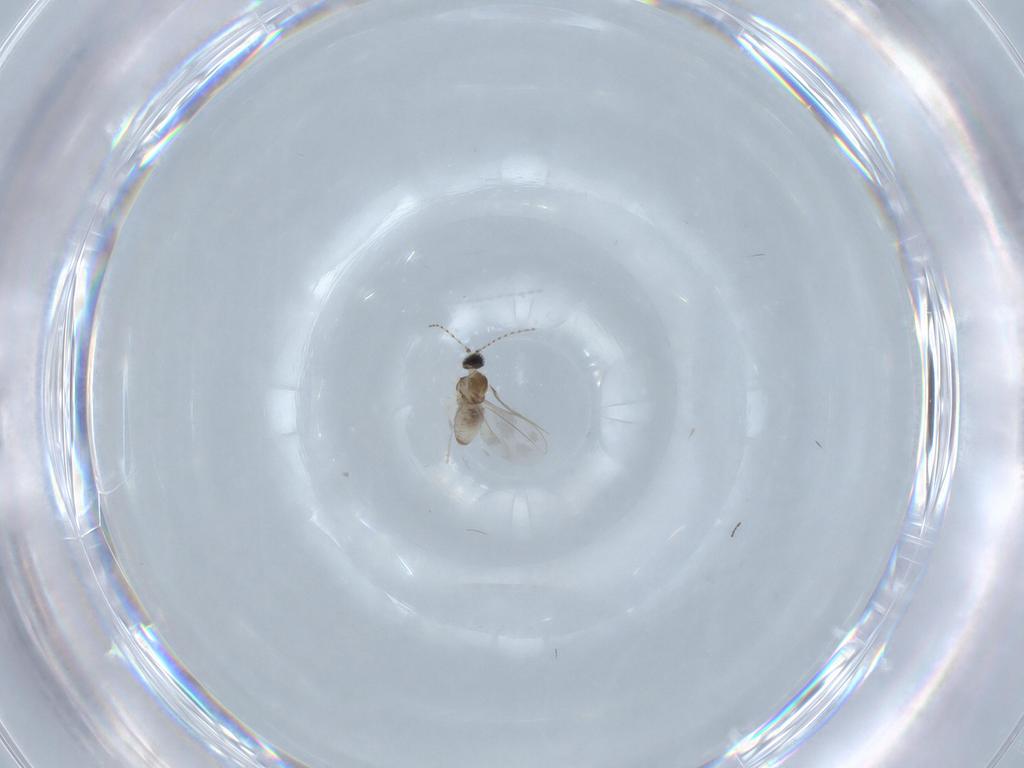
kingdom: Animalia
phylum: Arthropoda
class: Insecta
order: Diptera
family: Cecidomyiidae
